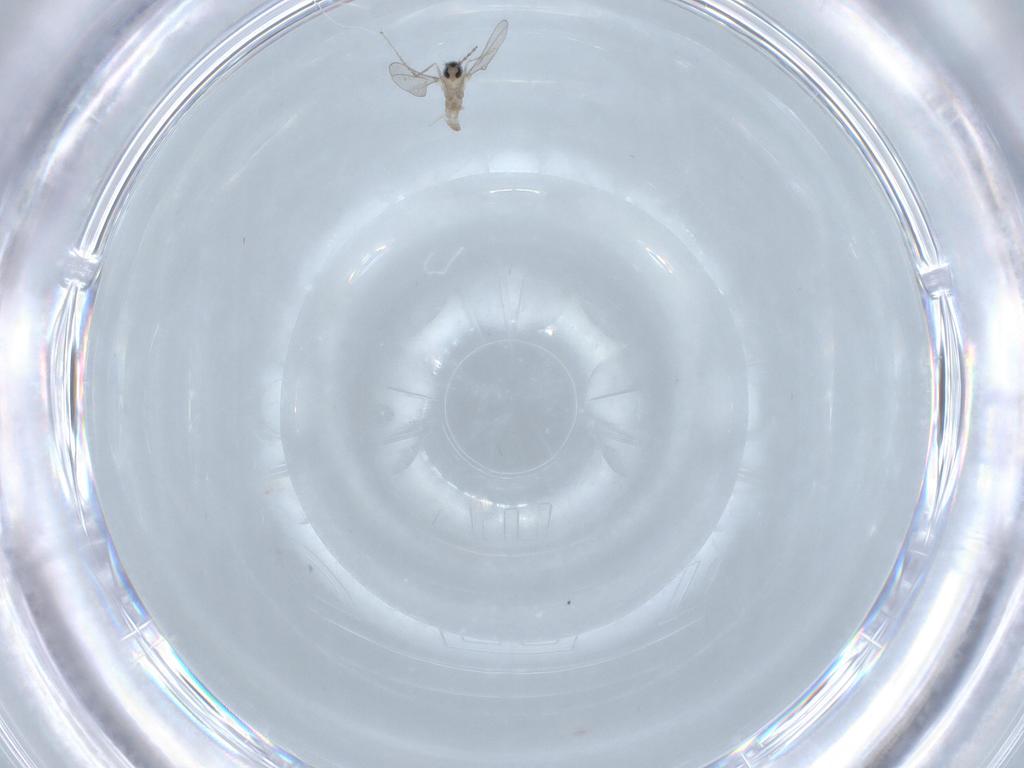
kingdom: Animalia
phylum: Arthropoda
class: Insecta
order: Diptera
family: Cecidomyiidae
